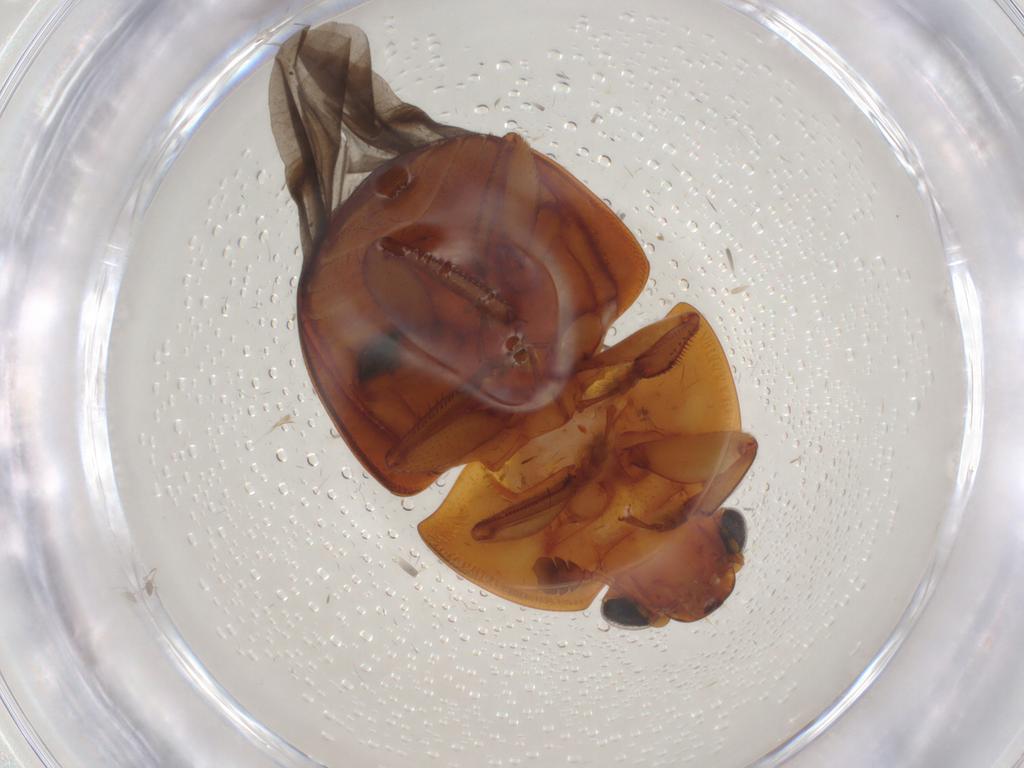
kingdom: Animalia
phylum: Arthropoda
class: Insecta
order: Coleoptera
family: Nitidulidae
